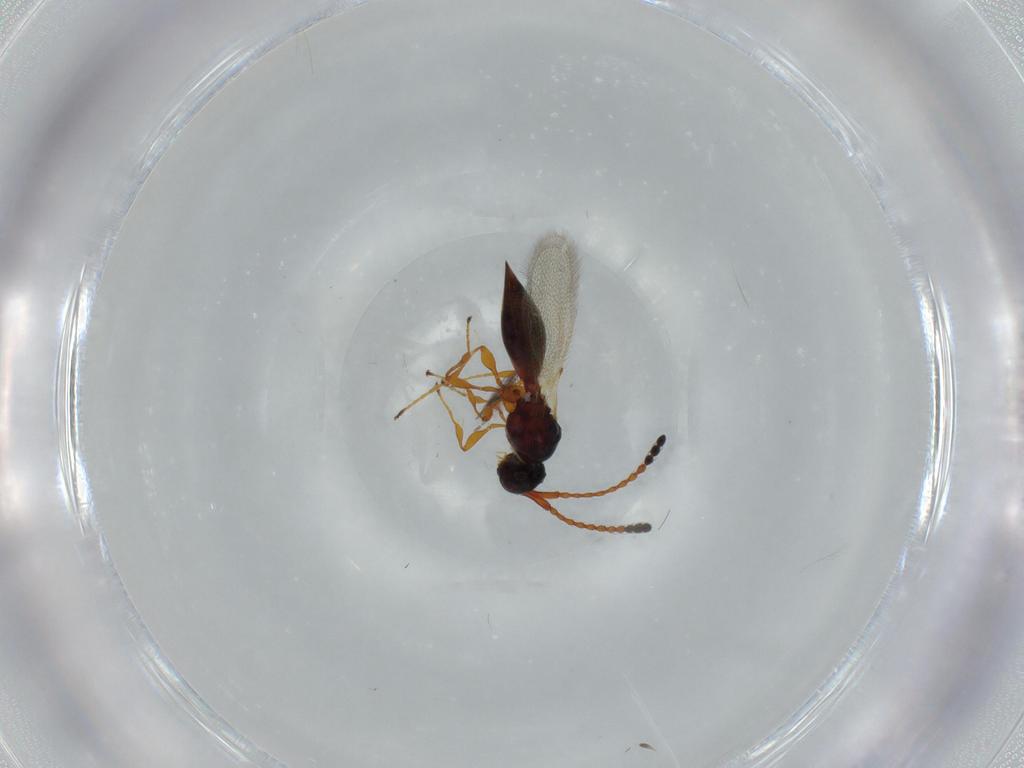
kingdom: Animalia
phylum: Arthropoda
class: Insecta
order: Hymenoptera
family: Diapriidae
